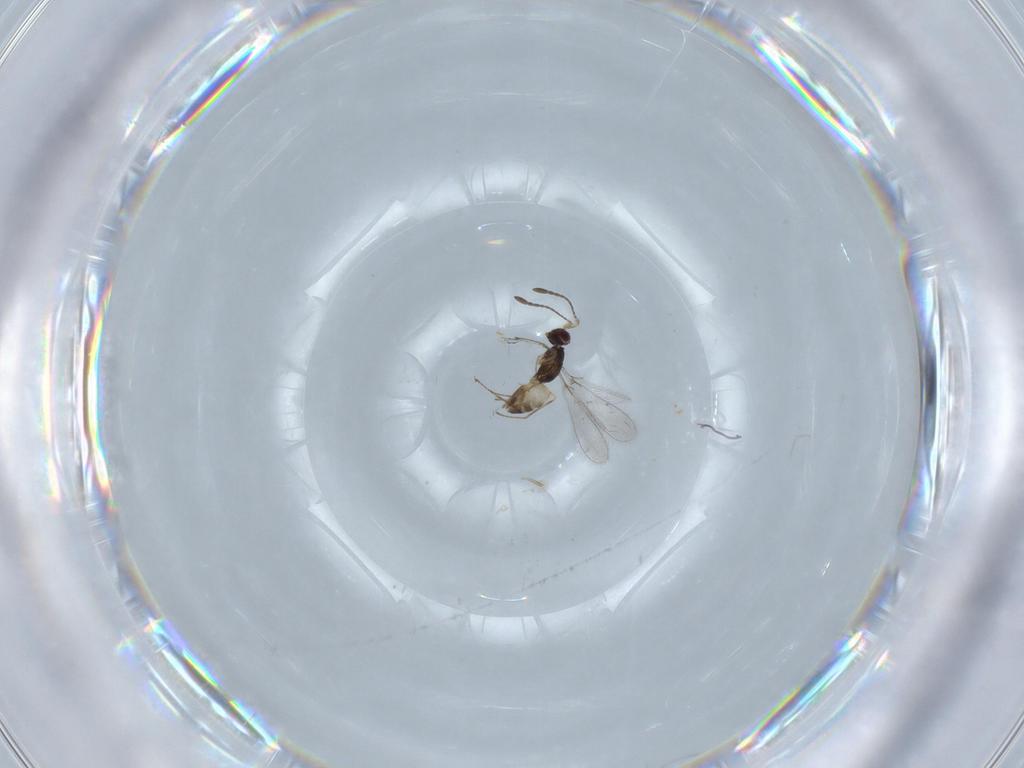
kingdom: Animalia
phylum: Arthropoda
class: Insecta
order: Hymenoptera
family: Mymaridae
